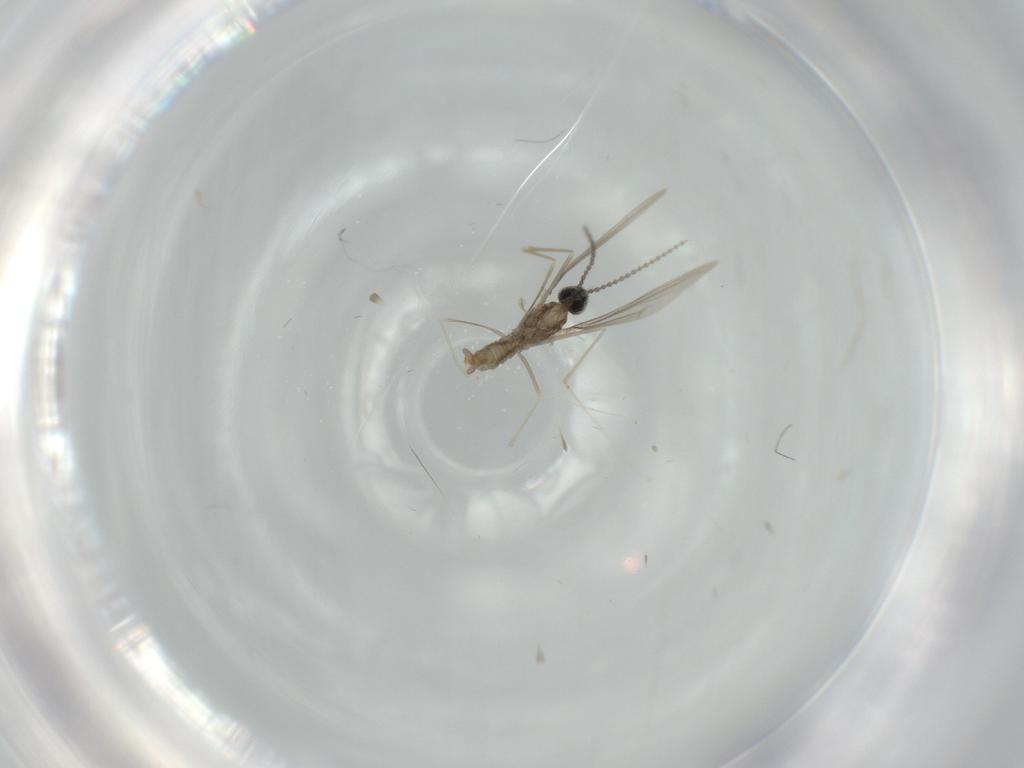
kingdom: Animalia
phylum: Arthropoda
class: Insecta
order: Diptera
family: Cecidomyiidae
